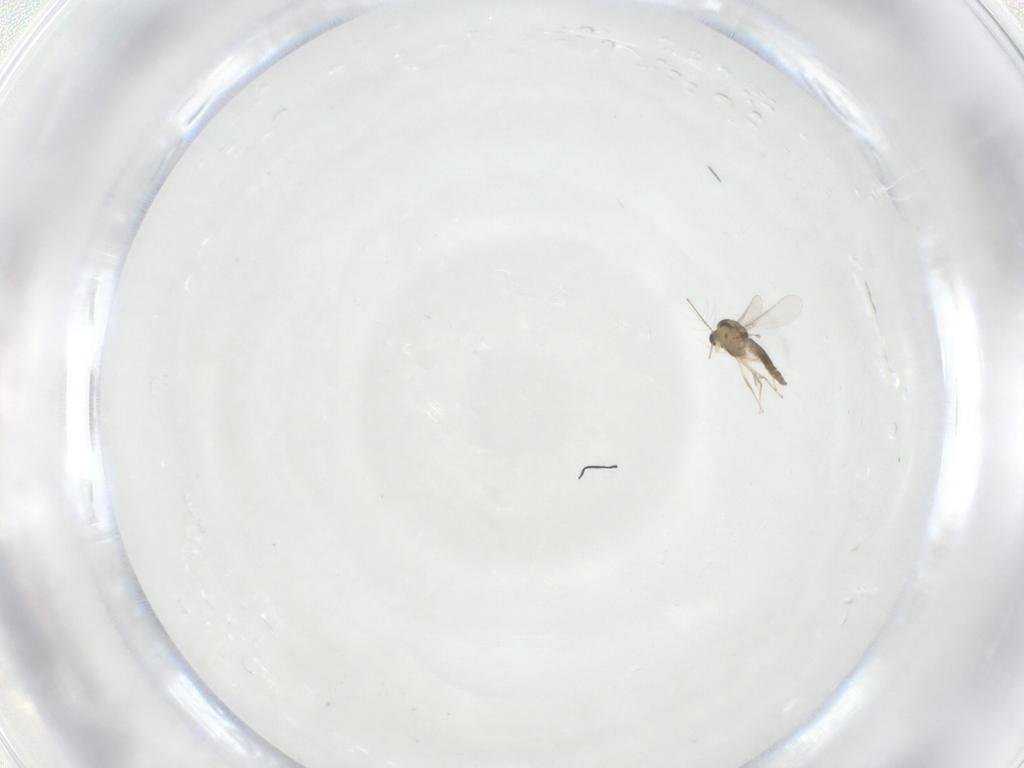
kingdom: Animalia
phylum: Arthropoda
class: Insecta
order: Diptera
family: Chironomidae
